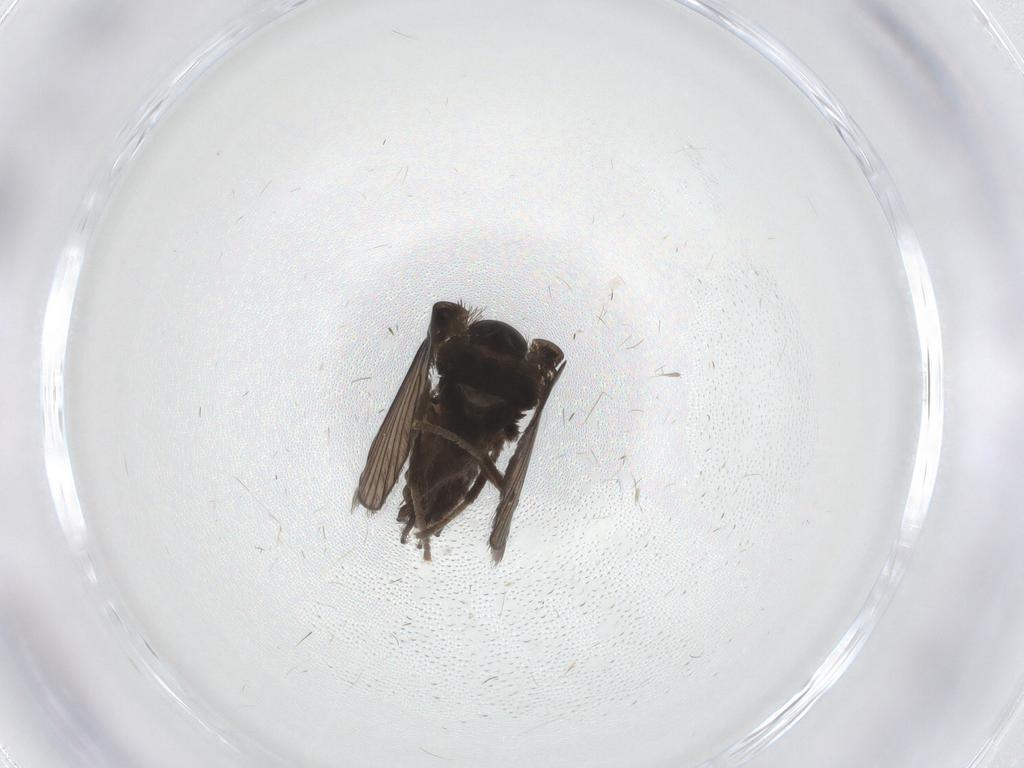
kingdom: Animalia
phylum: Arthropoda
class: Insecta
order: Diptera
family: Psychodidae
